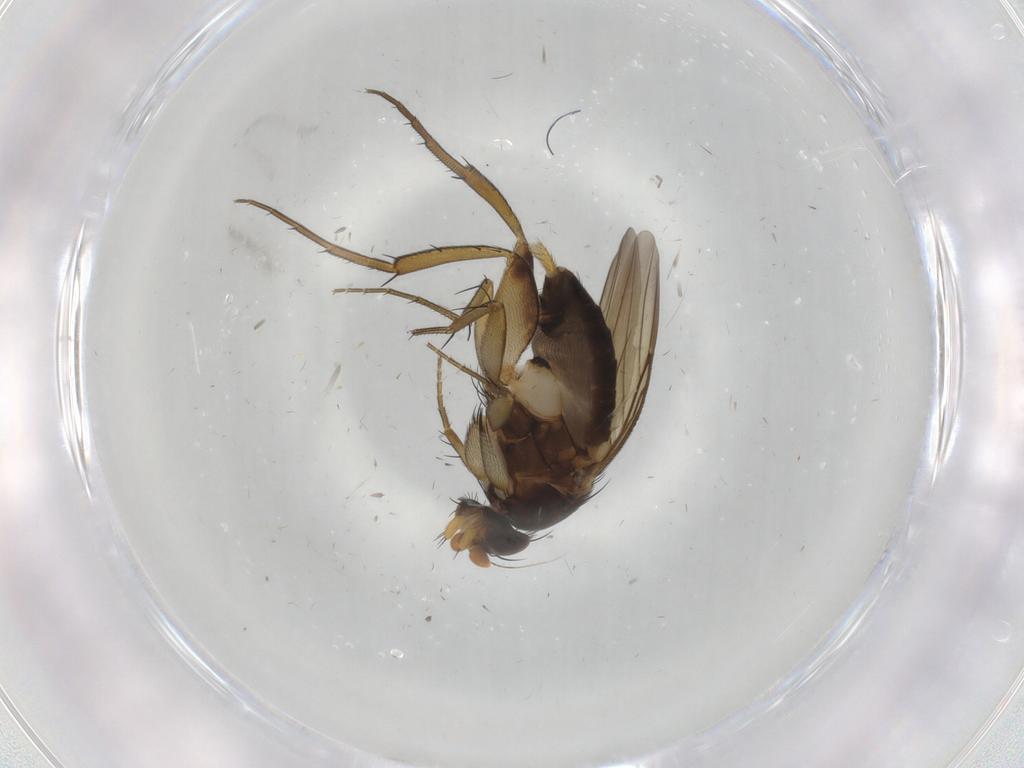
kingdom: Animalia
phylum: Arthropoda
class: Insecta
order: Diptera
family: Phoridae
